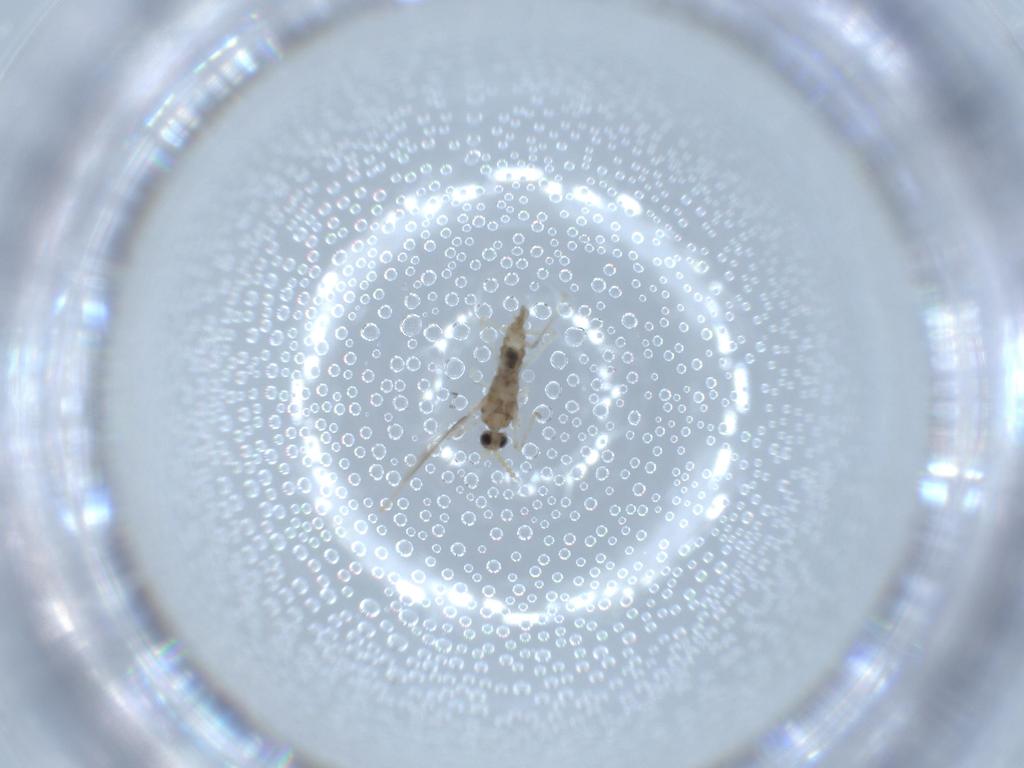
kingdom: Animalia
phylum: Arthropoda
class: Insecta
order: Diptera
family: Cecidomyiidae
